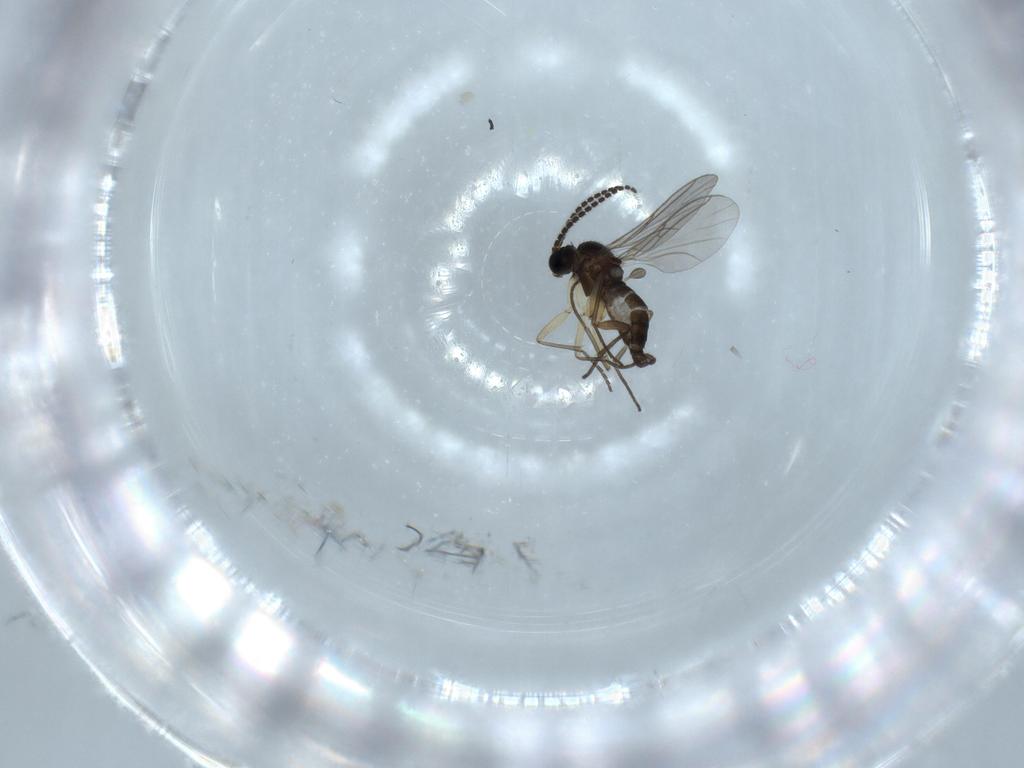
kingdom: Animalia
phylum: Arthropoda
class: Insecta
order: Diptera
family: Sciaridae
